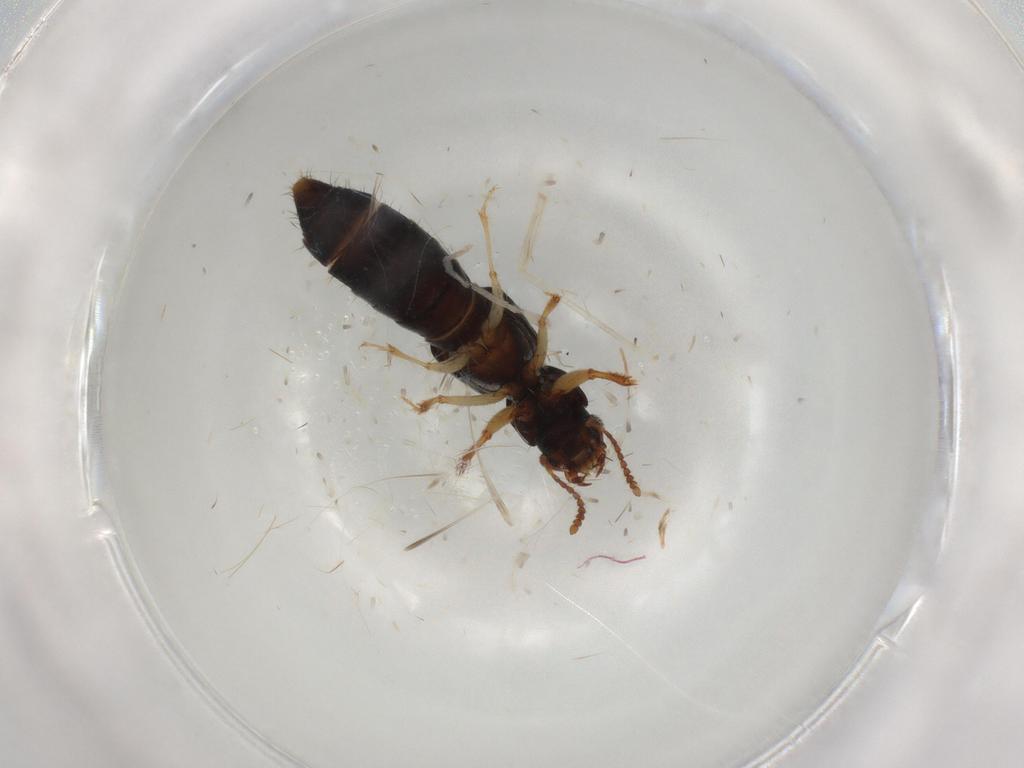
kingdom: Animalia
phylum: Arthropoda
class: Insecta
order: Coleoptera
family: Staphylinidae
